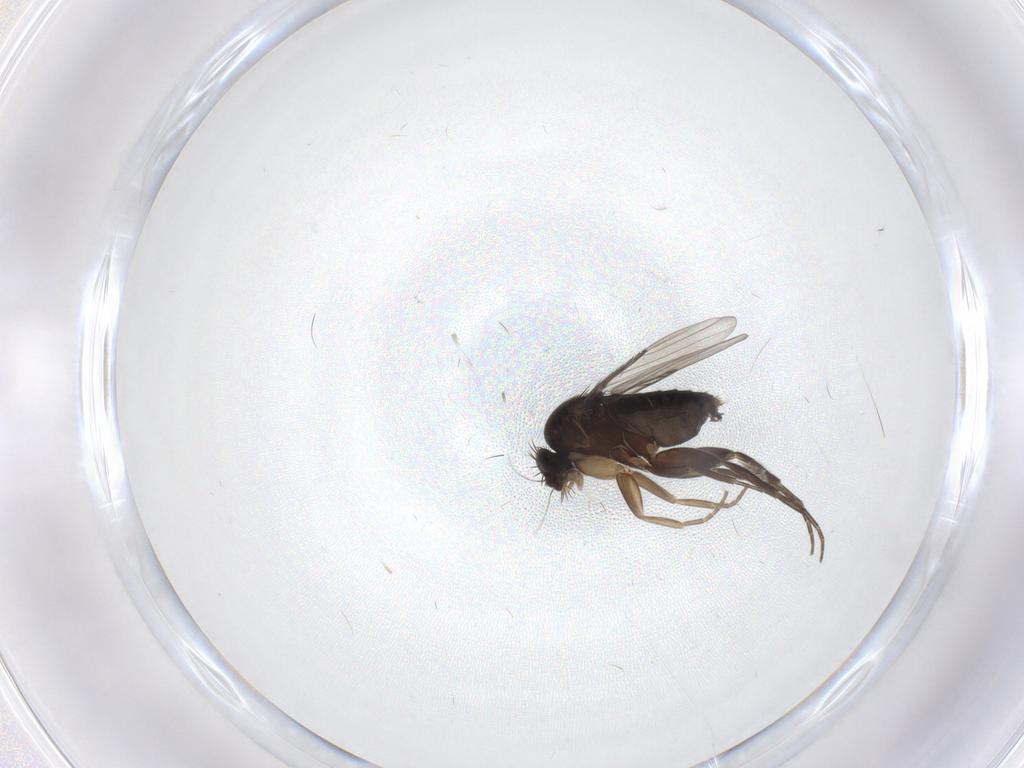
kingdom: Animalia
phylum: Arthropoda
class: Insecta
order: Diptera
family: Phoridae
